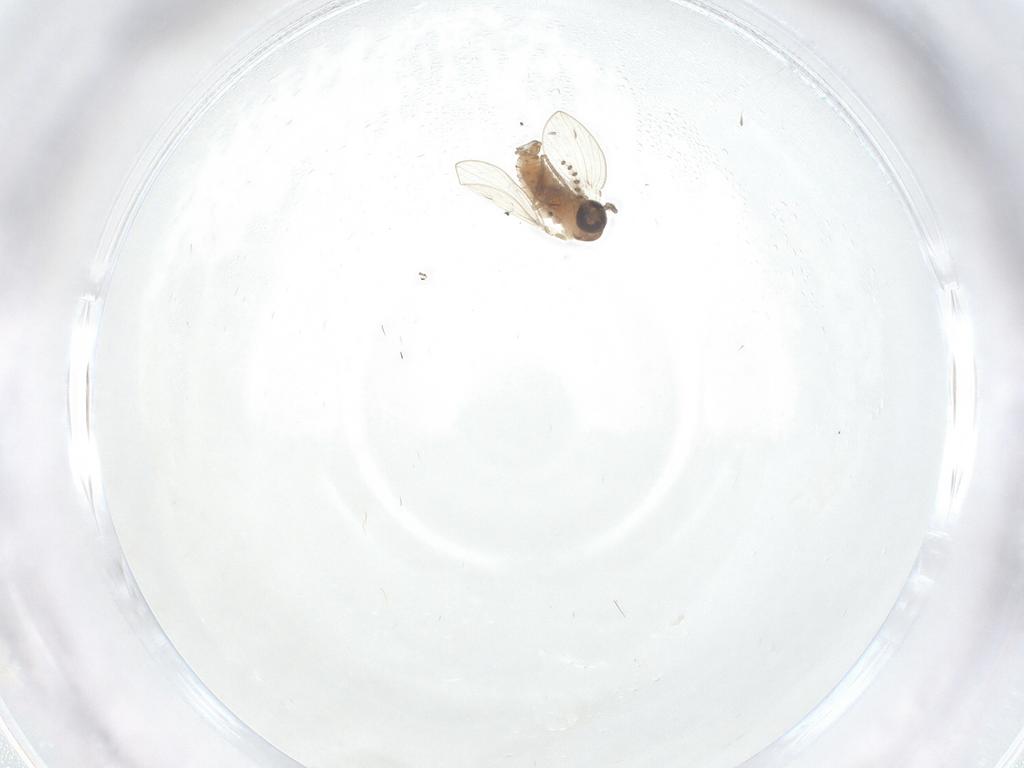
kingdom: Animalia
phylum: Arthropoda
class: Insecta
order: Diptera
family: Psychodidae
